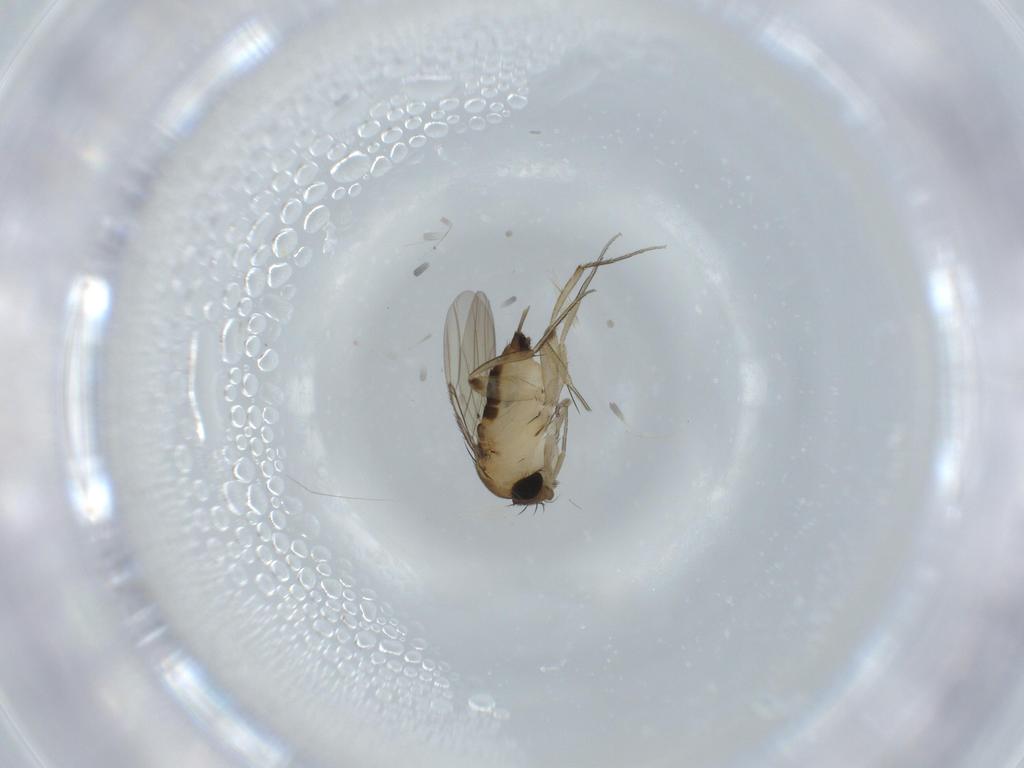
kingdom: Animalia
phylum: Arthropoda
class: Insecta
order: Diptera
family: Phoridae
